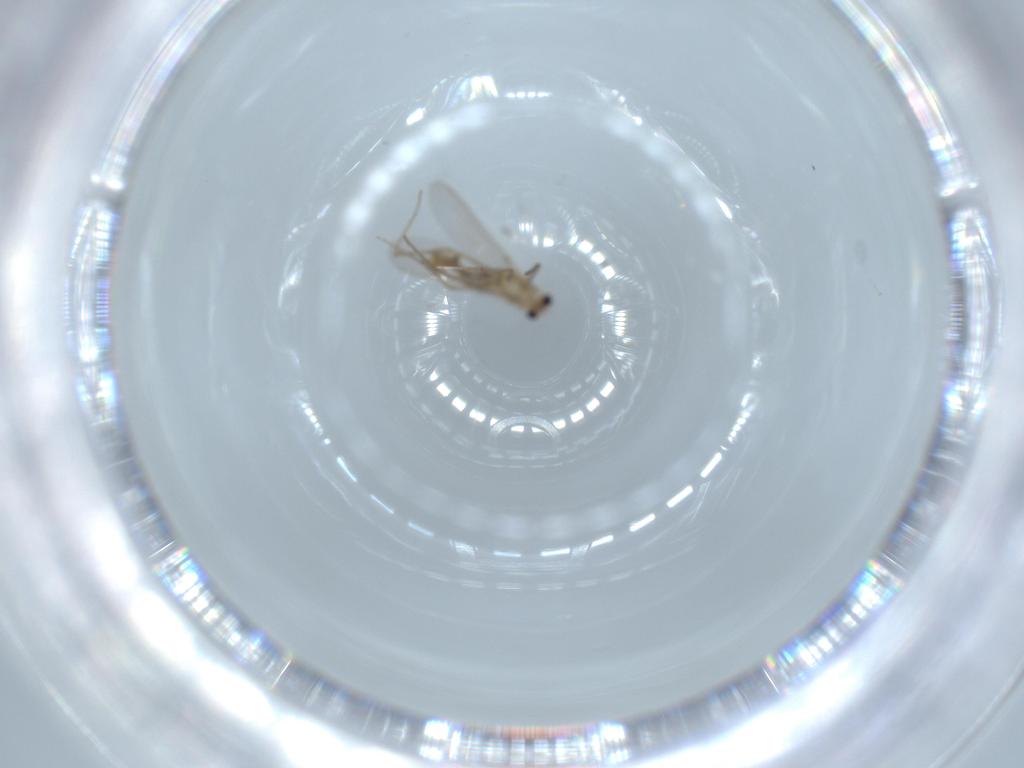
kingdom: Animalia
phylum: Arthropoda
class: Insecta
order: Diptera
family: Chironomidae
